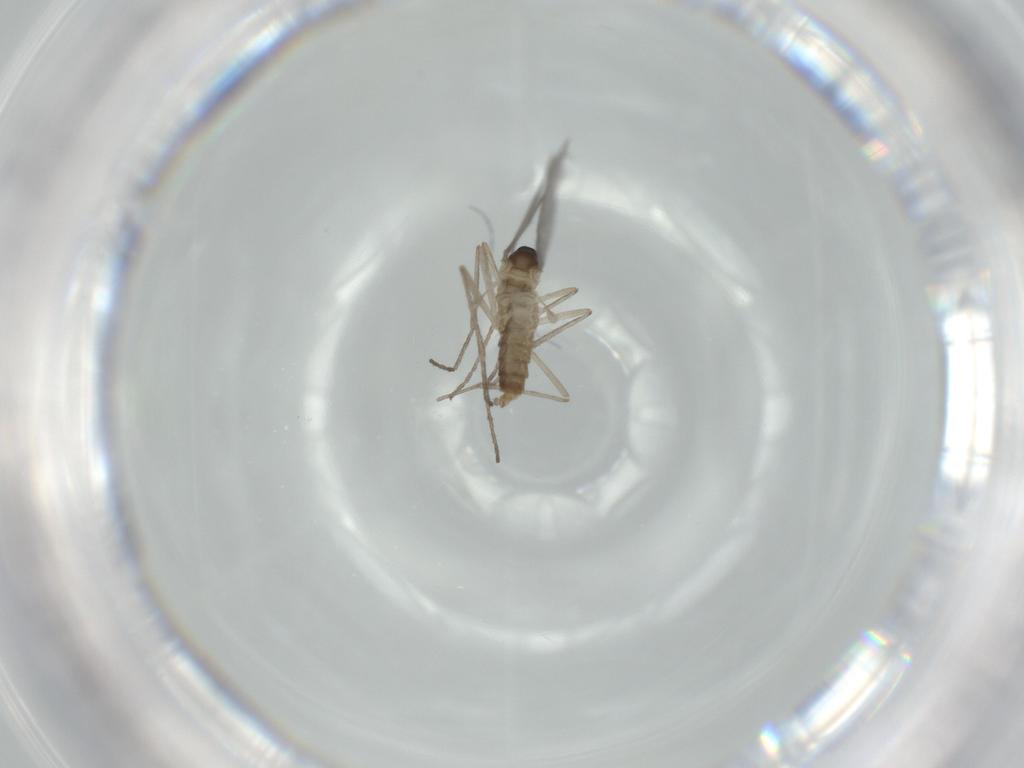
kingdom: Animalia
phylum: Arthropoda
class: Insecta
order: Diptera
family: Cecidomyiidae
